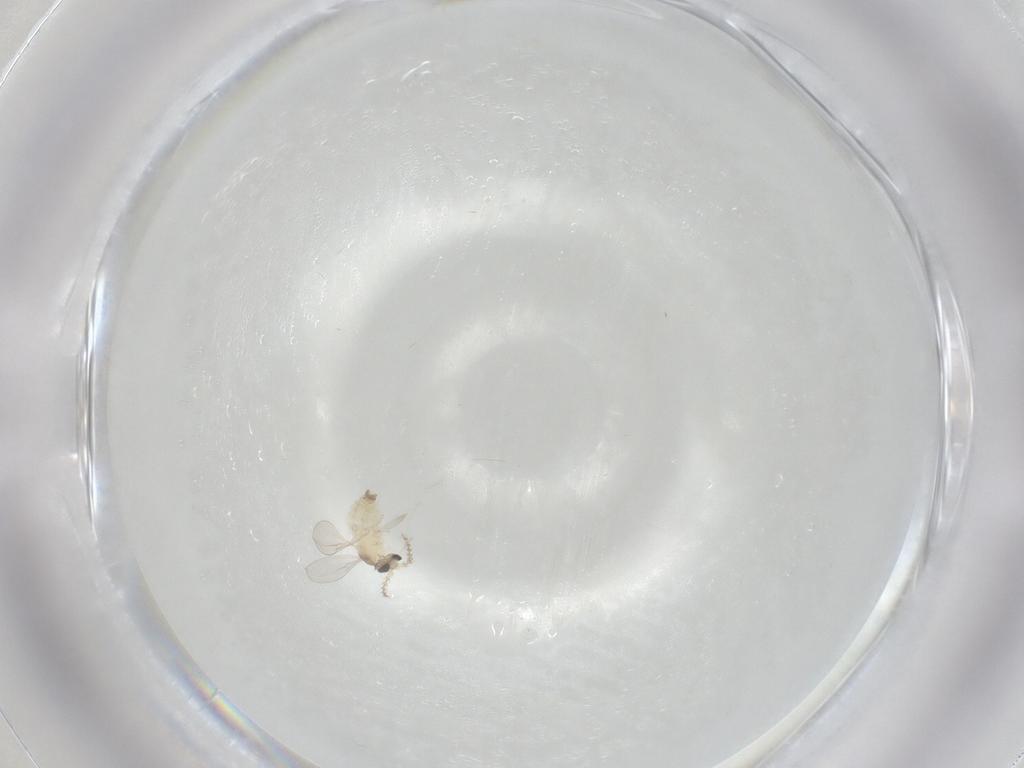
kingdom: Animalia
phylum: Arthropoda
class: Insecta
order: Diptera
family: Cecidomyiidae
